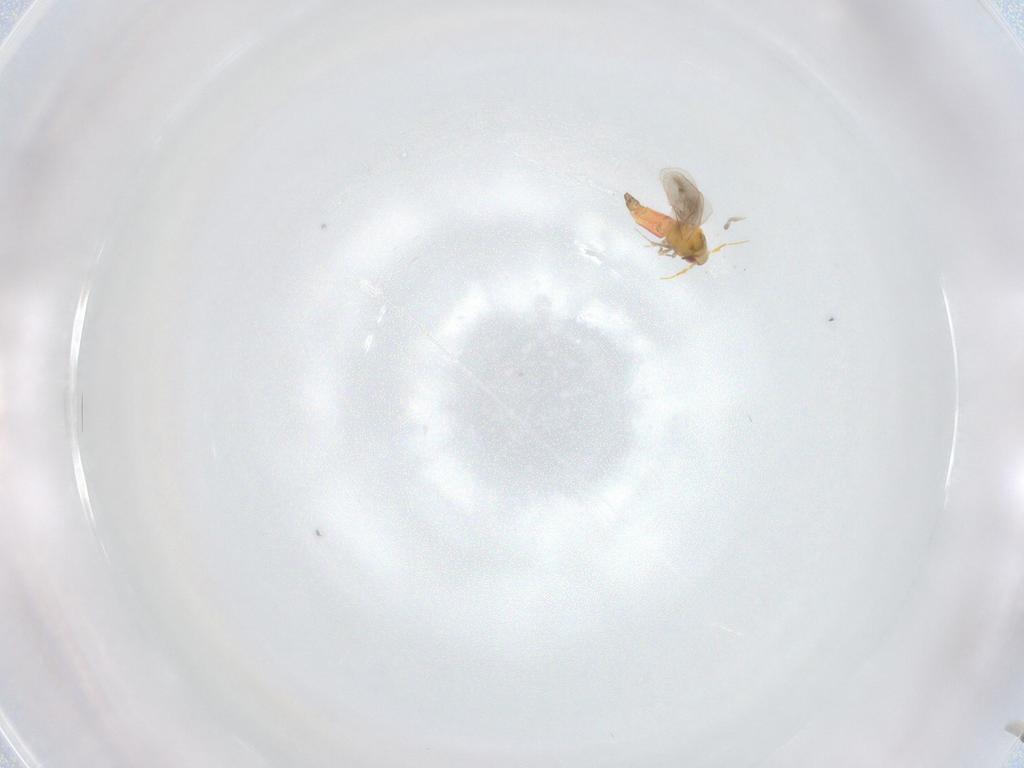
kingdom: Animalia
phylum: Arthropoda
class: Insecta
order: Hemiptera
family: Aleyrodidae
